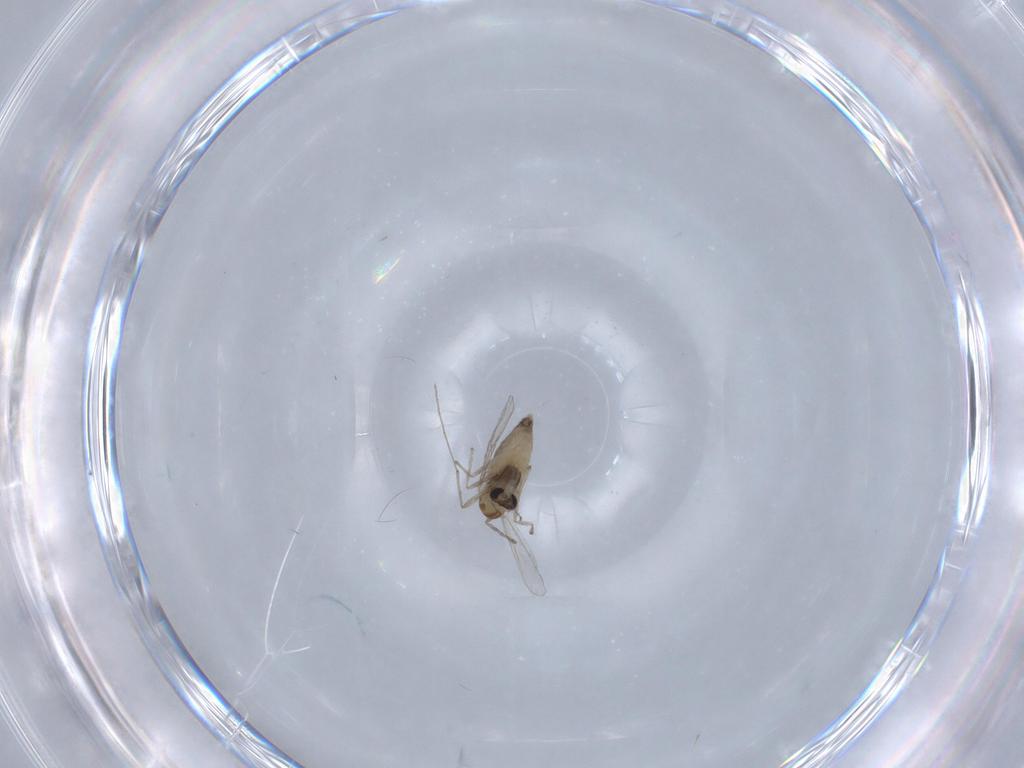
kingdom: Animalia
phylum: Arthropoda
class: Insecta
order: Diptera
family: Chironomidae
